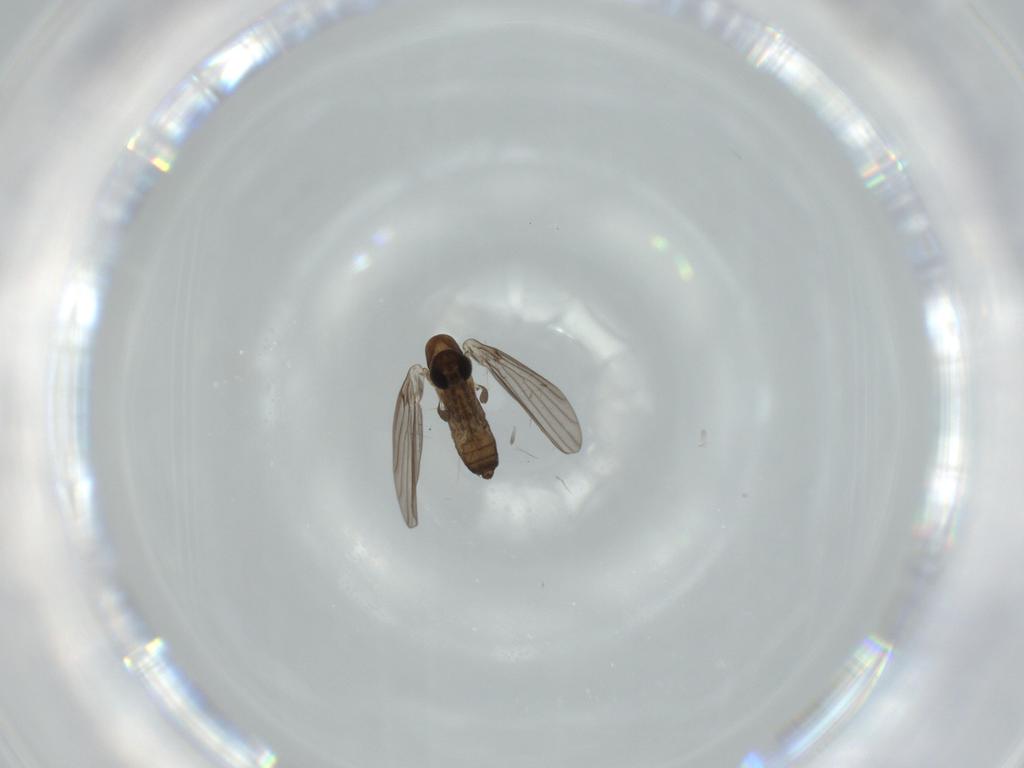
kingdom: Animalia
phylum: Arthropoda
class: Insecta
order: Diptera
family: Psychodidae
